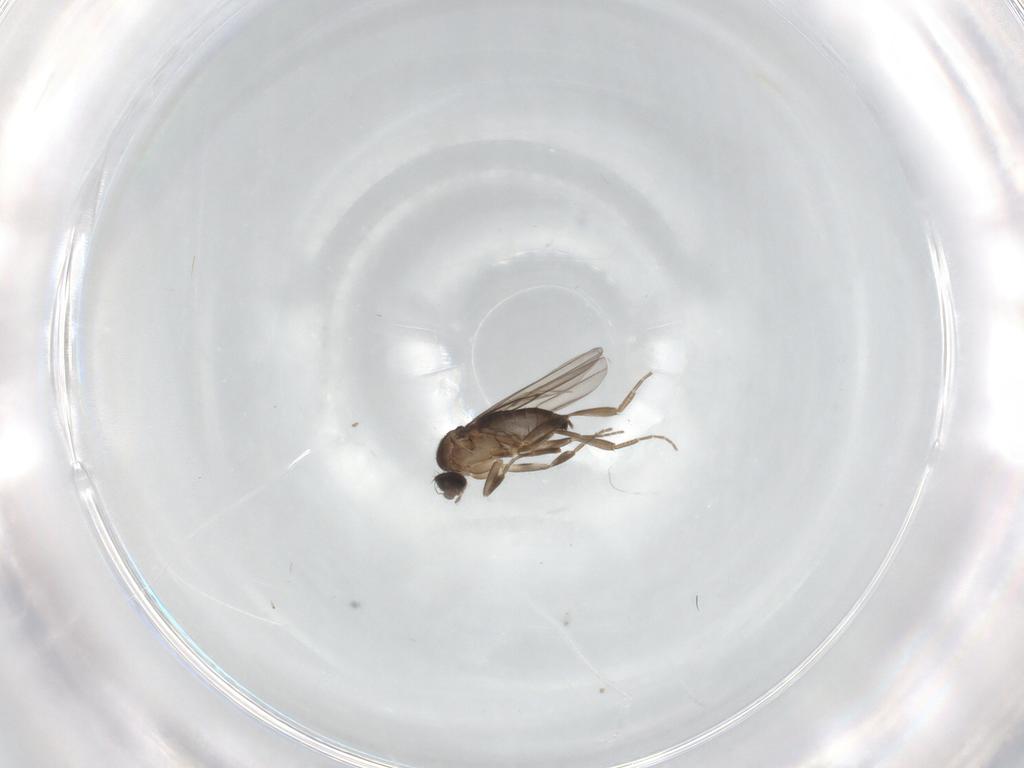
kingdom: Animalia
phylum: Arthropoda
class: Insecta
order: Diptera
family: Phoridae
